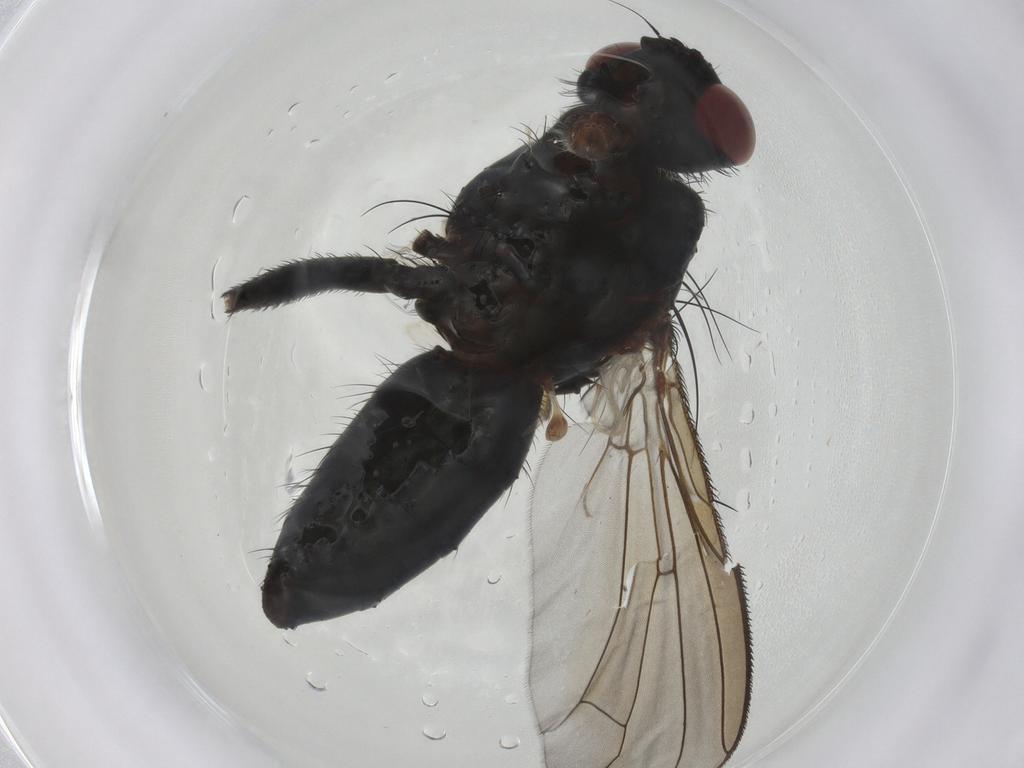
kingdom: Animalia
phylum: Arthropoda
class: Insecta
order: Diptera
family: Tachinidae
